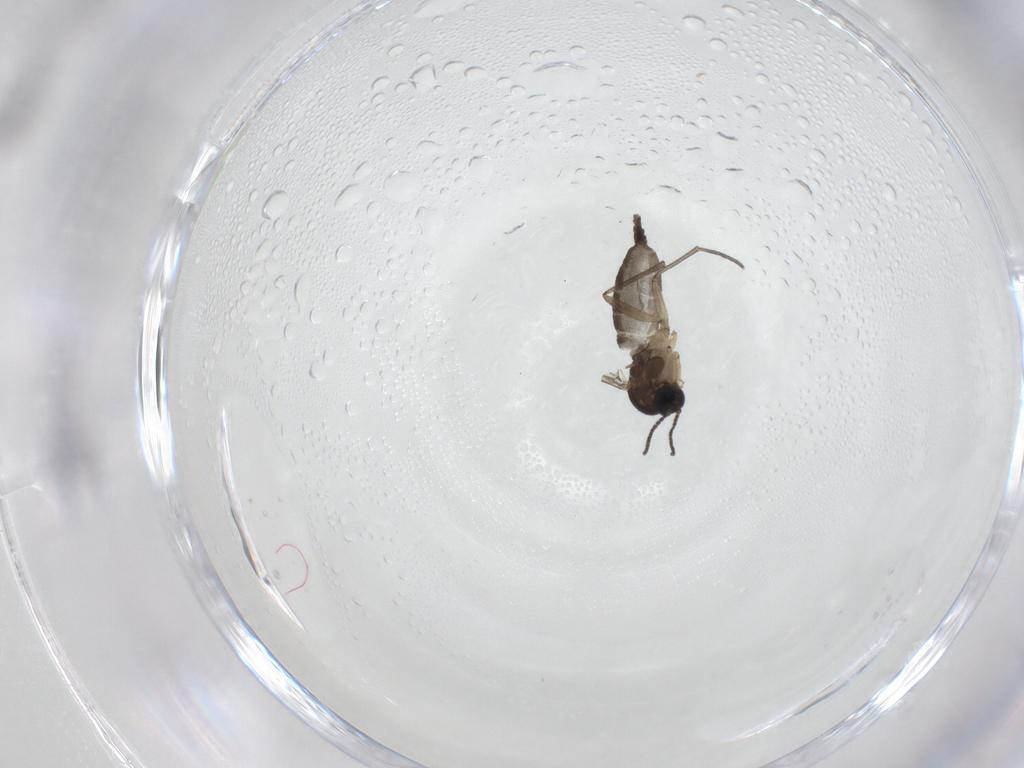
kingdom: Animalia
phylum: Arthropoda
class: Insecta
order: Diptera
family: Sciaridae
